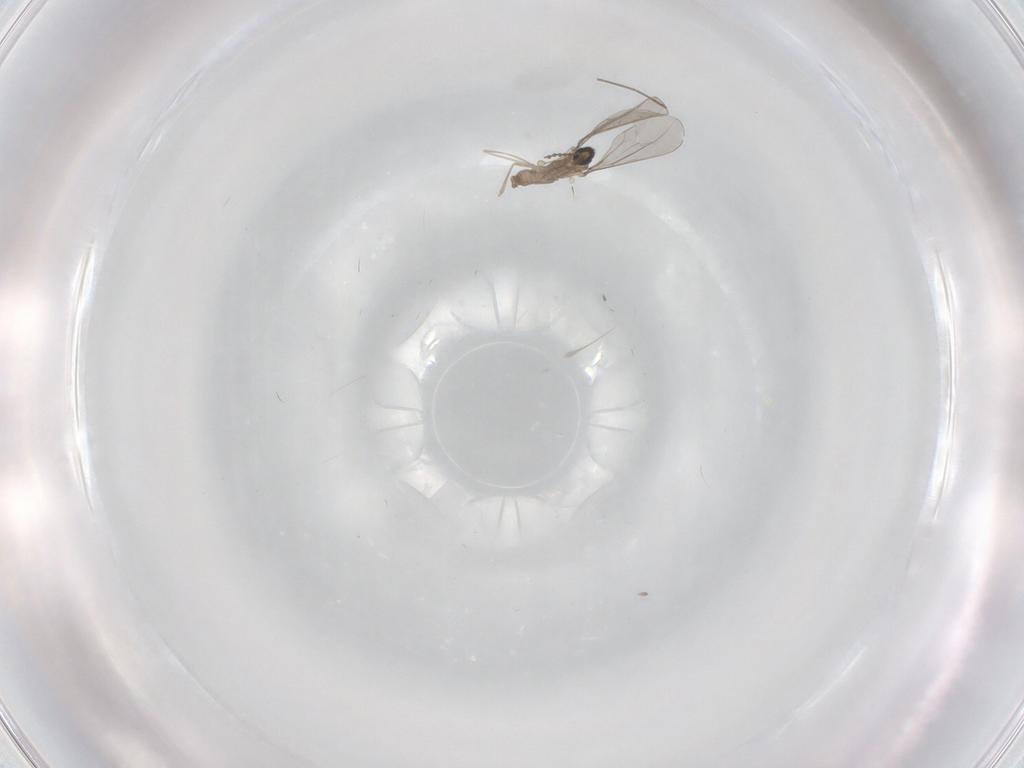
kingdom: Animalia
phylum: Arthropoda
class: Insecta
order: Diptera
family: Cecidomyiidae
